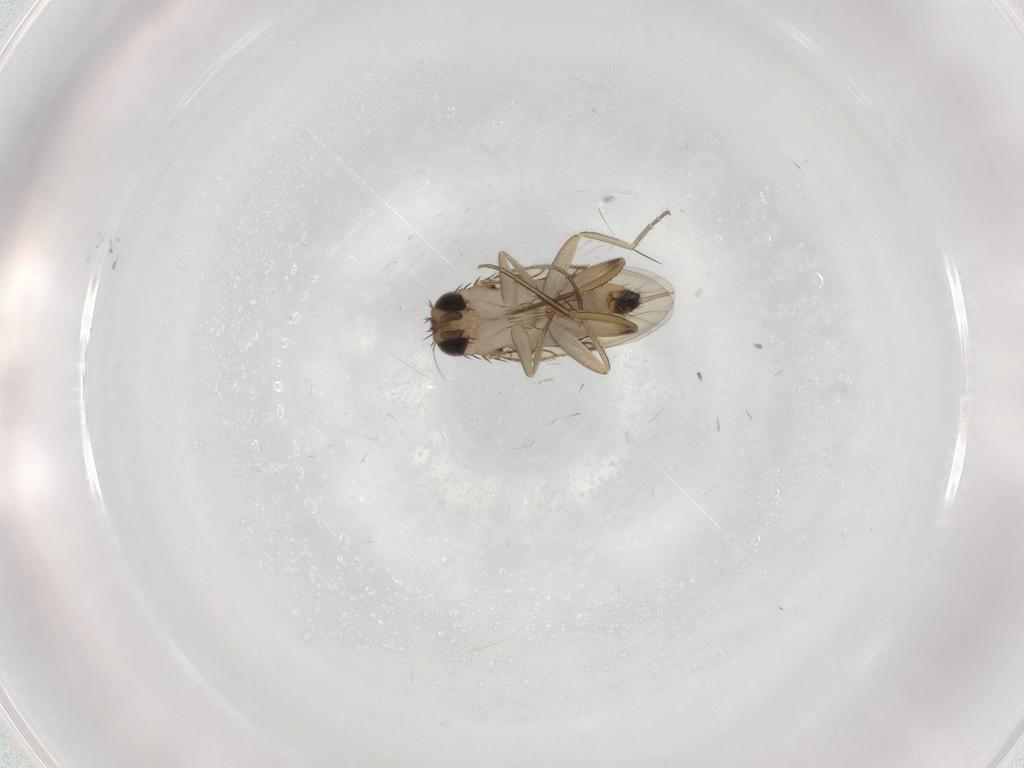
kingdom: Animalia
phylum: Arthropoda
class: Insecta
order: Diptera
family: Phoridae
